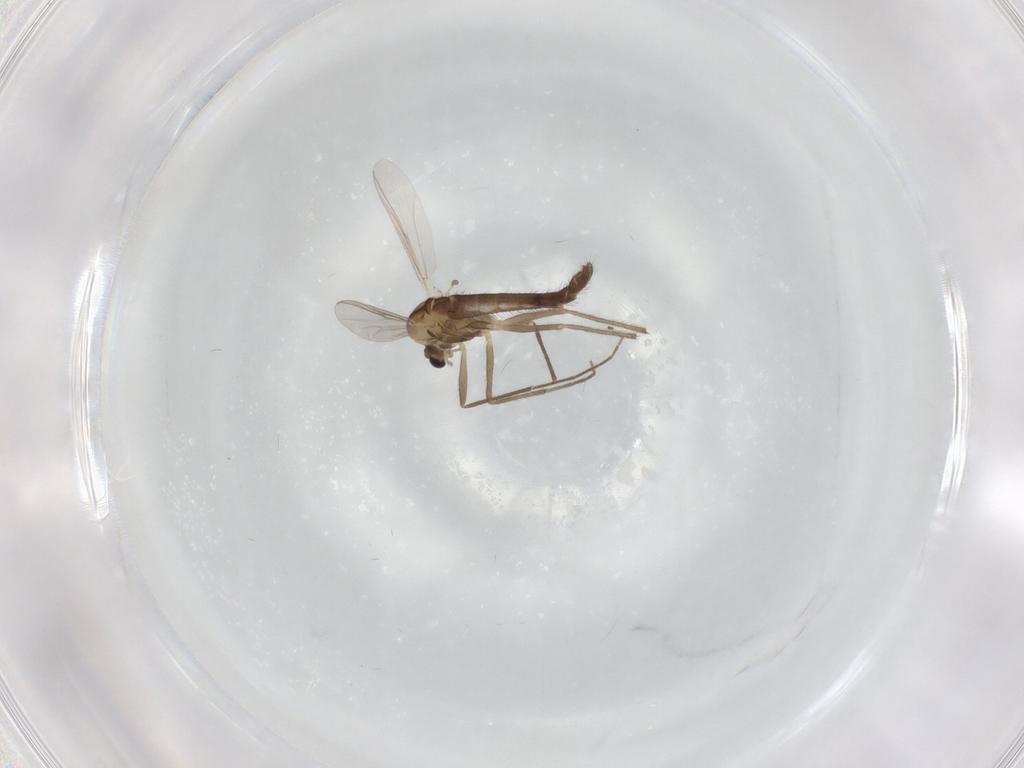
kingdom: Animalia
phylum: Arthropoda
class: Insecta
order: Diptera
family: Chironomidae
